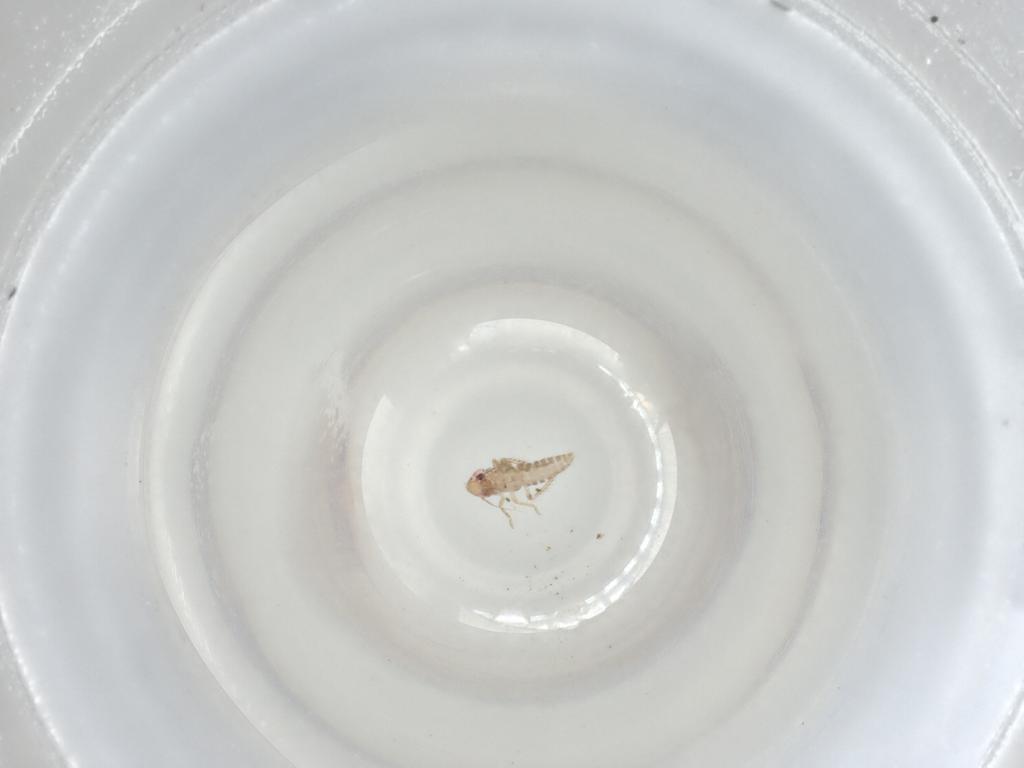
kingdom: Animalia
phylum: Arthropoda
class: Insecta
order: Hemiptera
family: Cicadellidae
